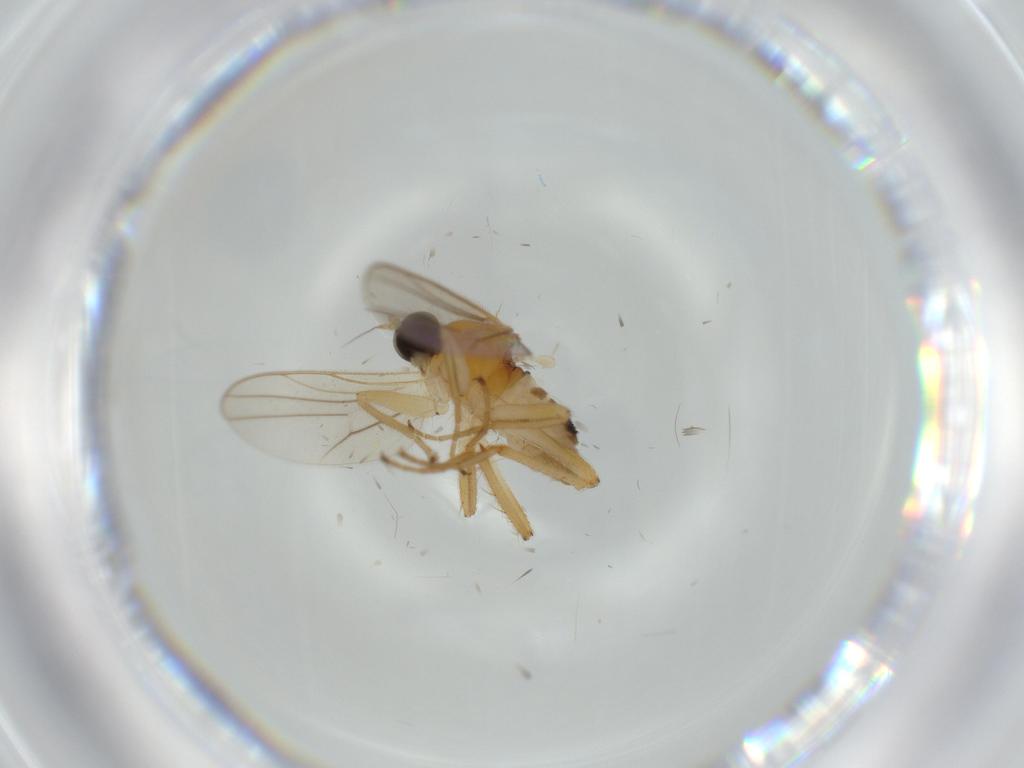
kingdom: Animalia
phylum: Arthropoda
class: Insecta
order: Diptera
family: Hybotidae
